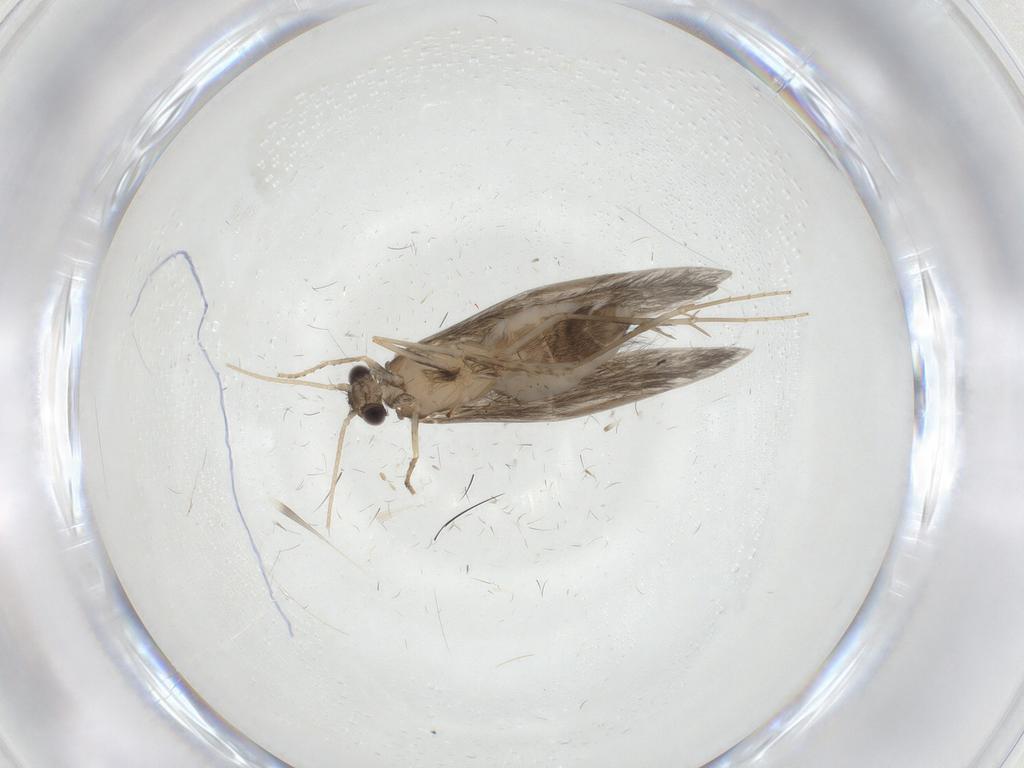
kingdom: Animalia
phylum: Arthropoda
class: Insecta
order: Trichoptera
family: Hydroptilidae
